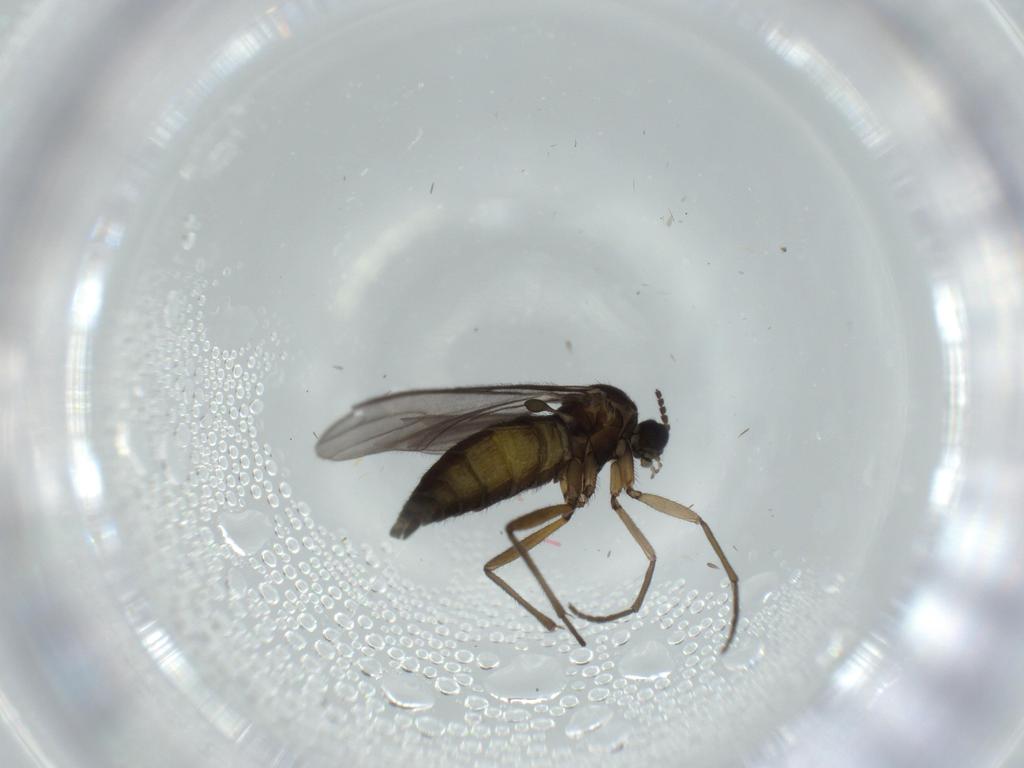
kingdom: Animalia
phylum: Arthropoda
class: Insecta
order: Diptera
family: Sciaridae
